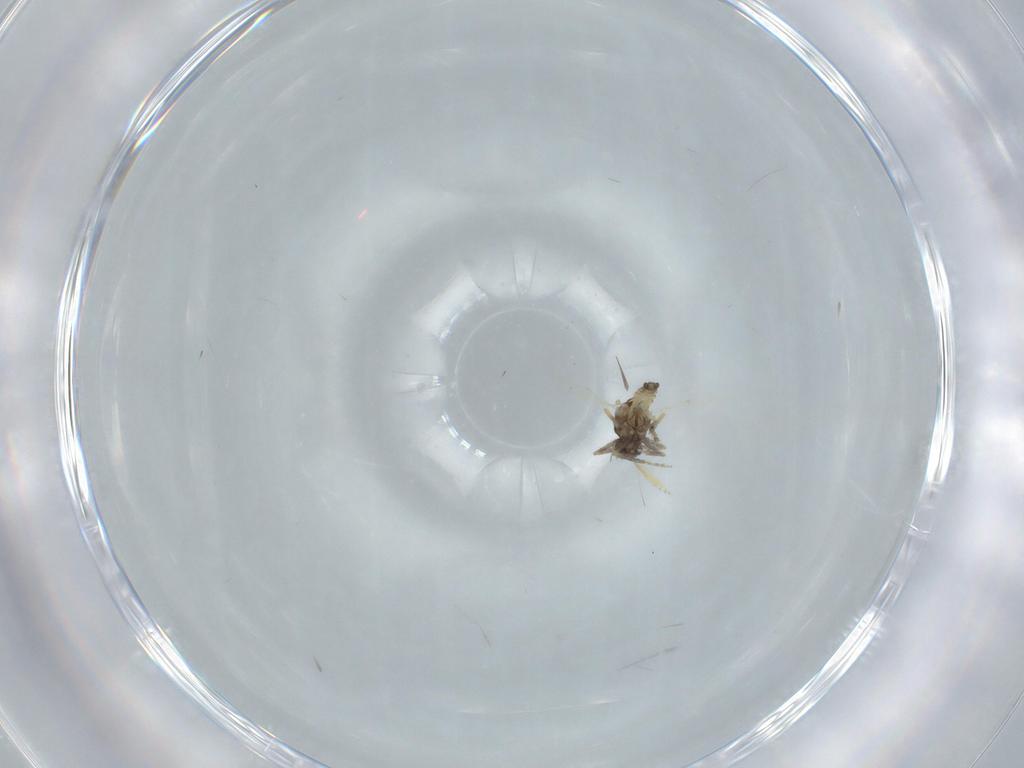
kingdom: Animalia
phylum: Arthropoda
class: Insecta
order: Diptera
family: Ceratopogonidae
